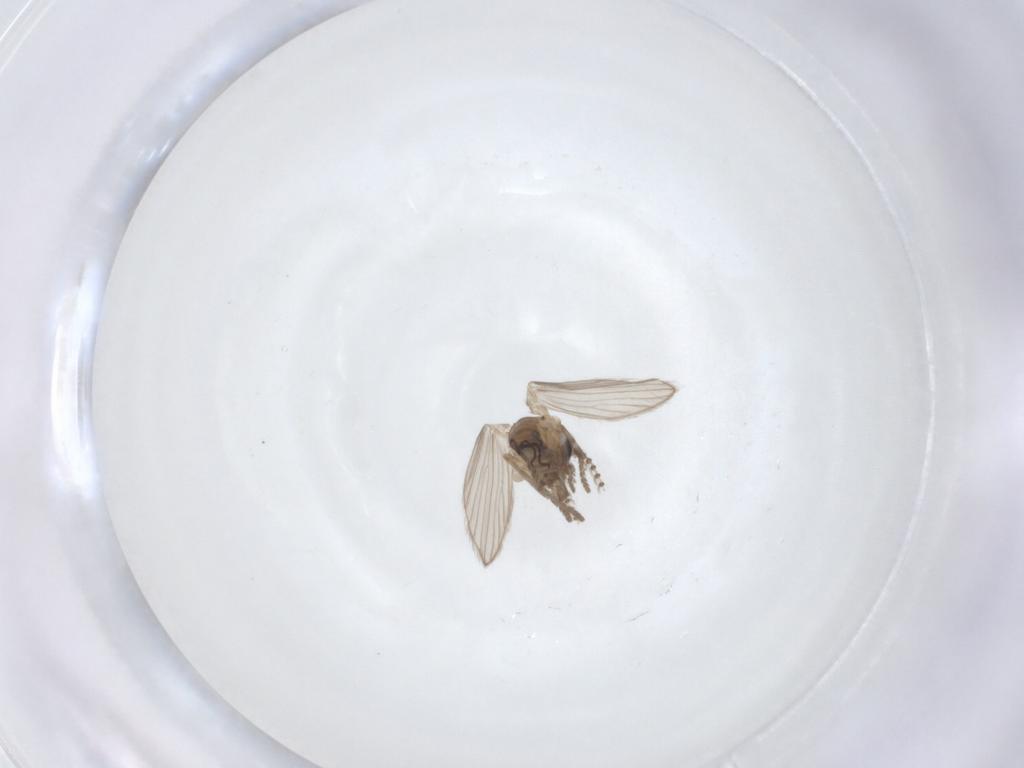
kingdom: Animalia
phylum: Arthropoda
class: Insecta
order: Diptera
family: Psychodidae
